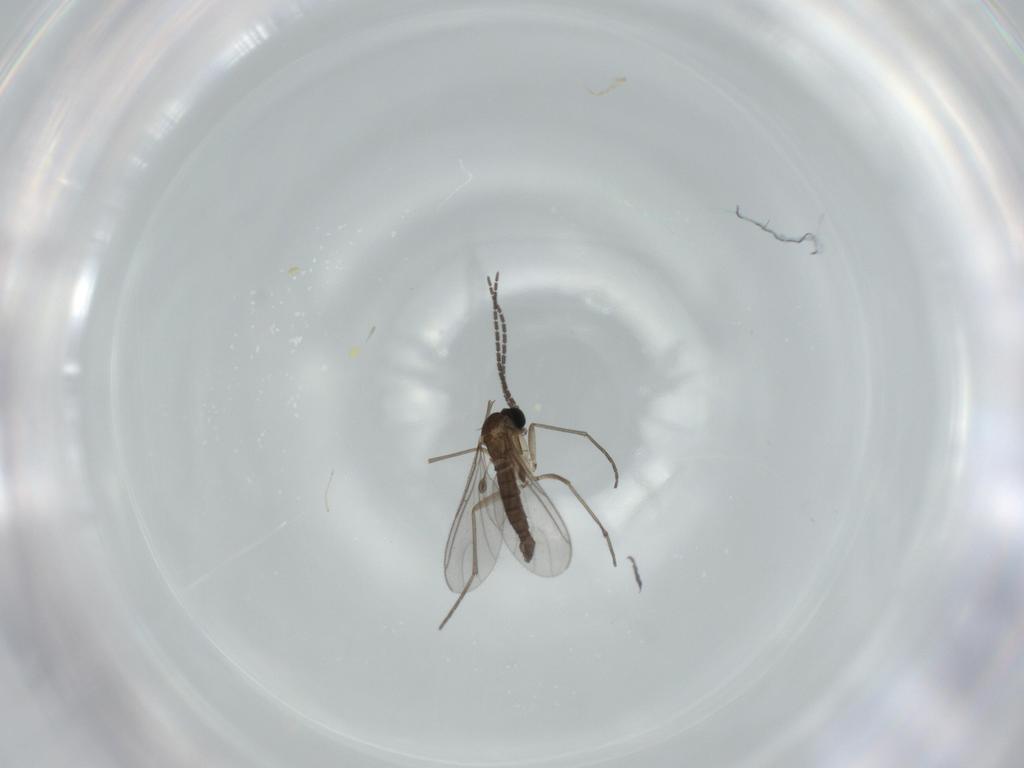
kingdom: Animalia
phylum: Arthropoda
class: Insecta
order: Diptera
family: Sciaridae
